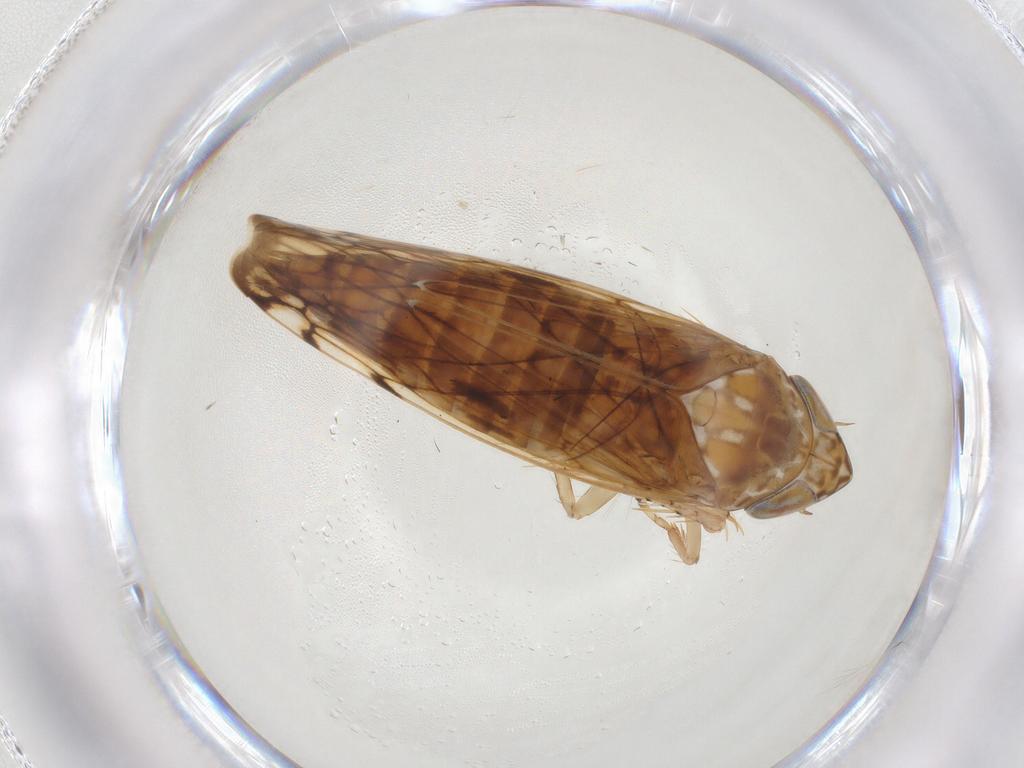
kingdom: Animalia
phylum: Arthropoda
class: Insecta
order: Hemiptera
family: Cicadellidae
